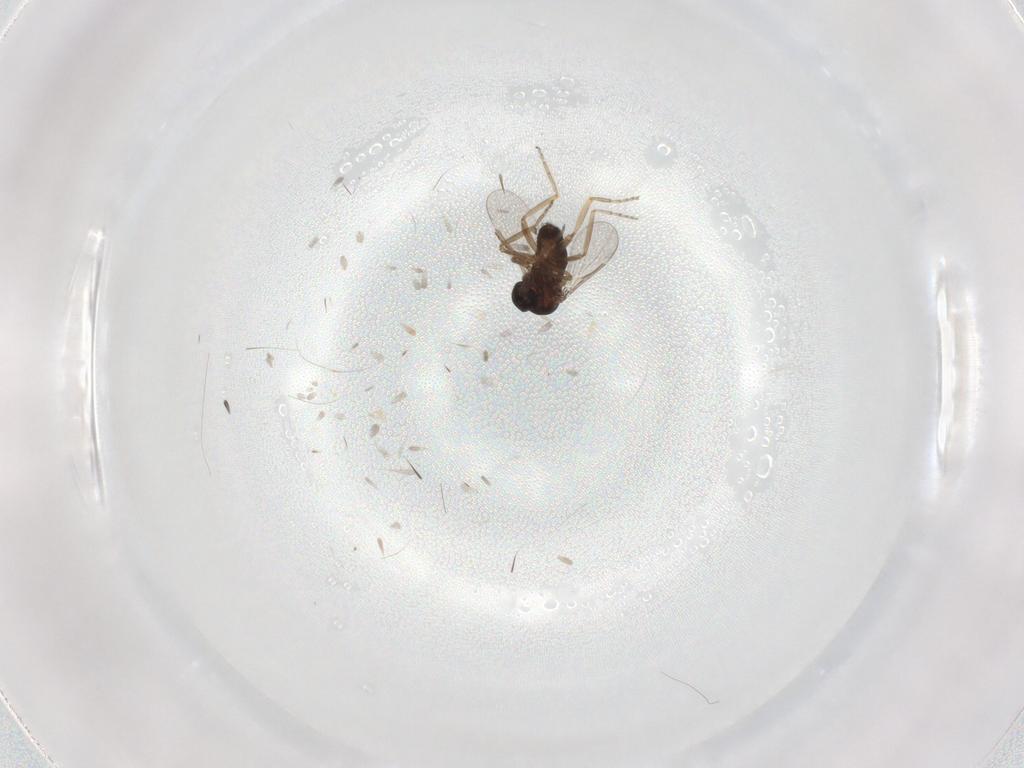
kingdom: Animalia
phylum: Arthropoda
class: Insecta
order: Diptera
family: Ceratopogonidae
